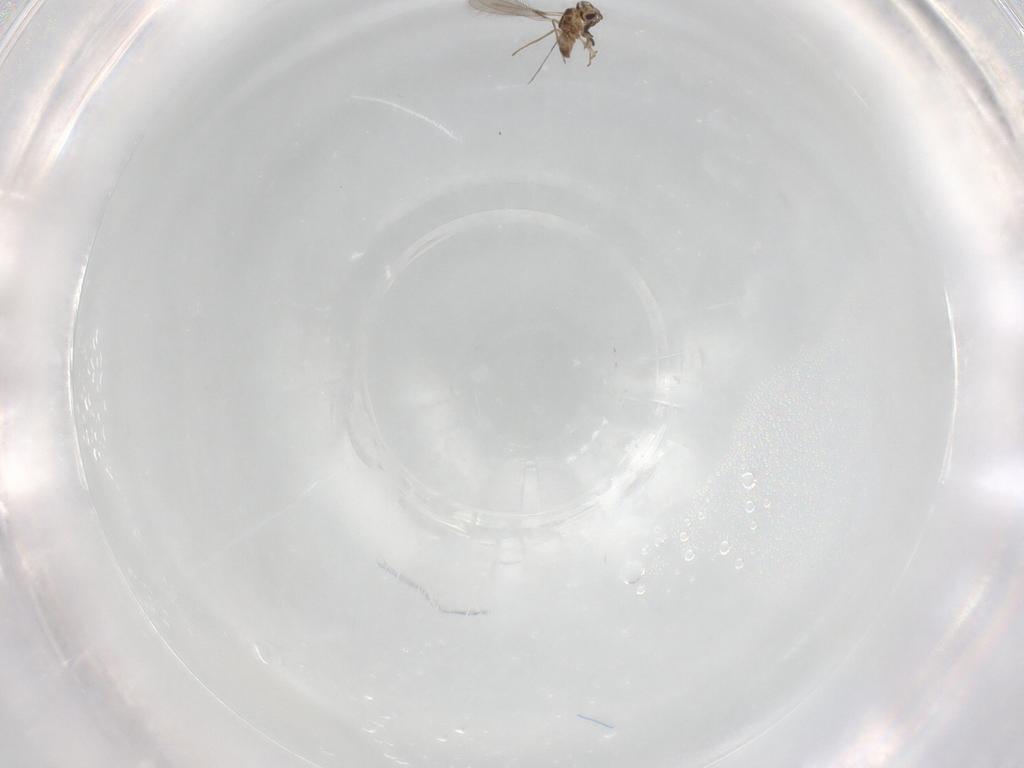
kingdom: Animalia
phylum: Arthropoda
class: Insecta
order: Hymenoptera
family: Mymaridae
